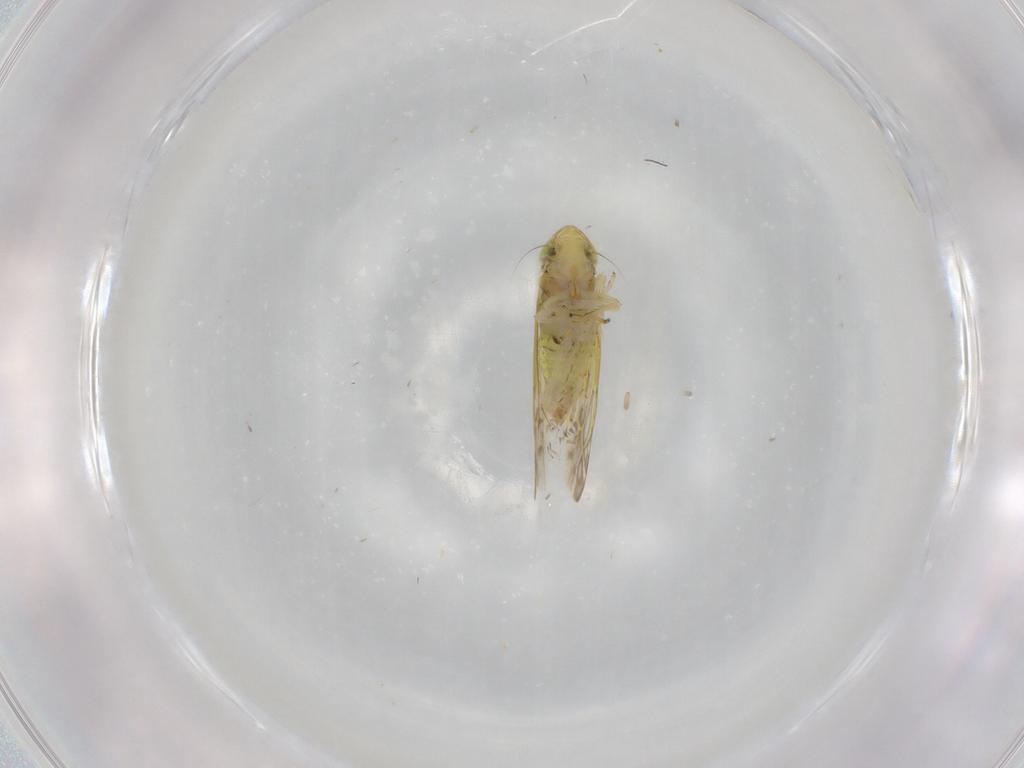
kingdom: Animalia
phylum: Arthropoda
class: Insecta
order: Hemiptera
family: Cicadellidae
